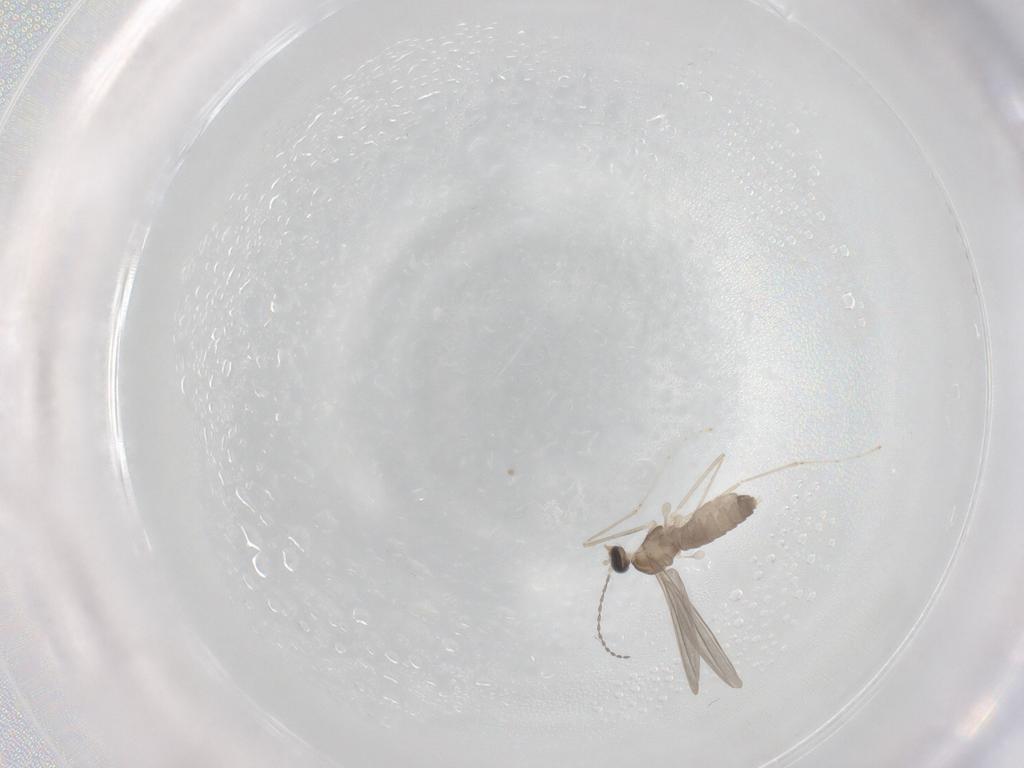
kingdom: Animalia
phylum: Arthropoda
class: Insecta
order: Diptera
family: Cecidomyiidae
